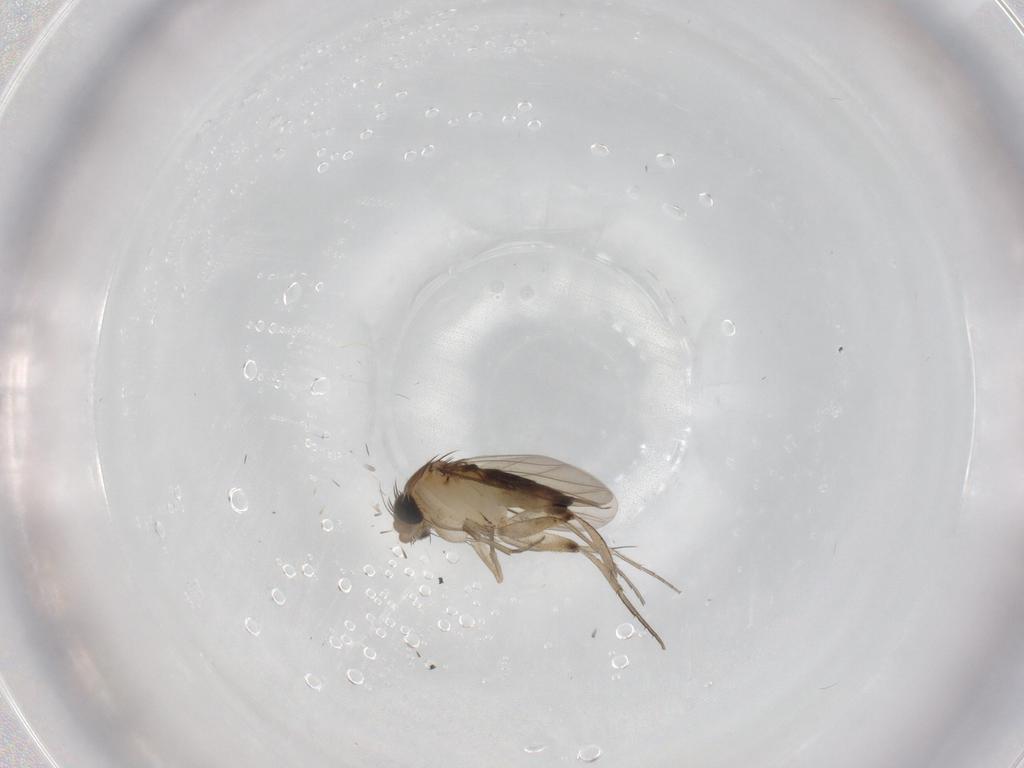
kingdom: Animalia
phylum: Arthropoda
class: Insecta
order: Diptera
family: Phoridae
